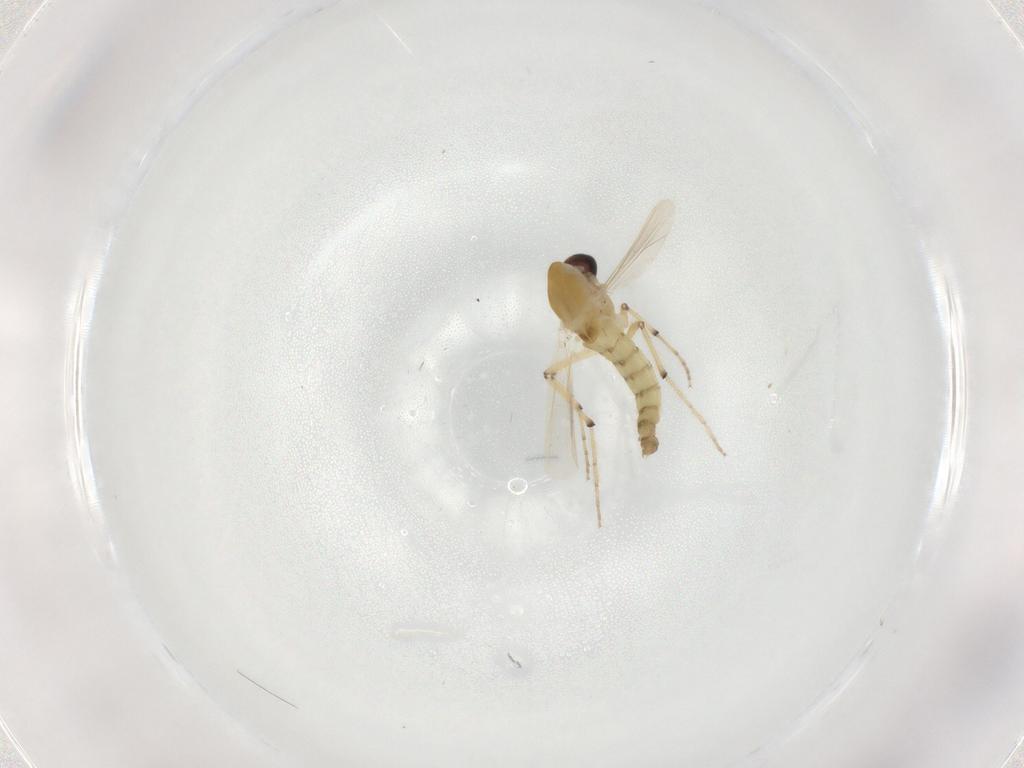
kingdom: Animalia
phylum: Arthropoda
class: Insecta
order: Diptera
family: Chironomidae
